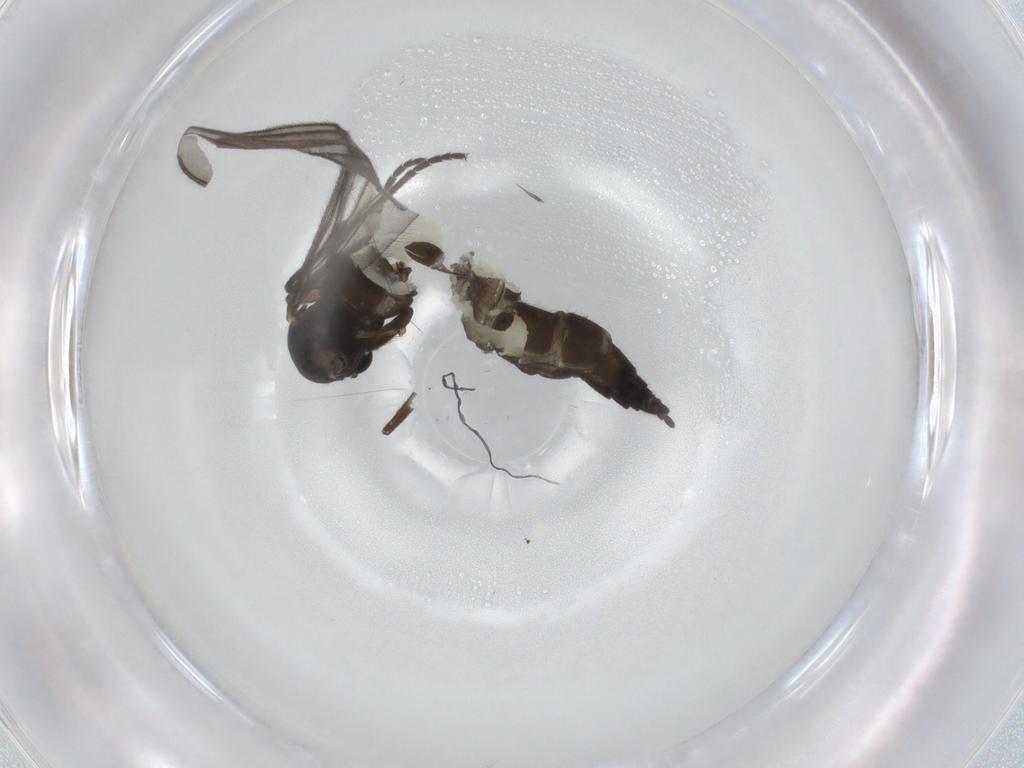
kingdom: Animalia
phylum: Arthropoda
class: Insecta
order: Diptera
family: Sciaridae
